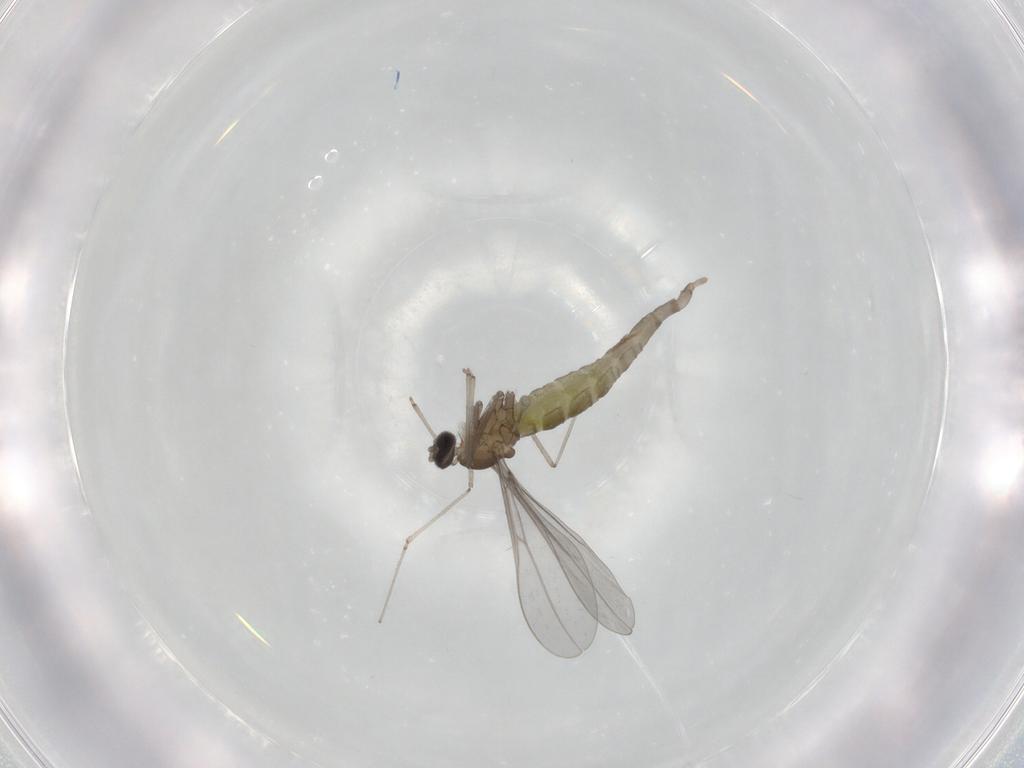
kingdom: Animalia
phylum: Arthropoda
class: Insecta
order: Diptera
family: Cecidomyiidae
